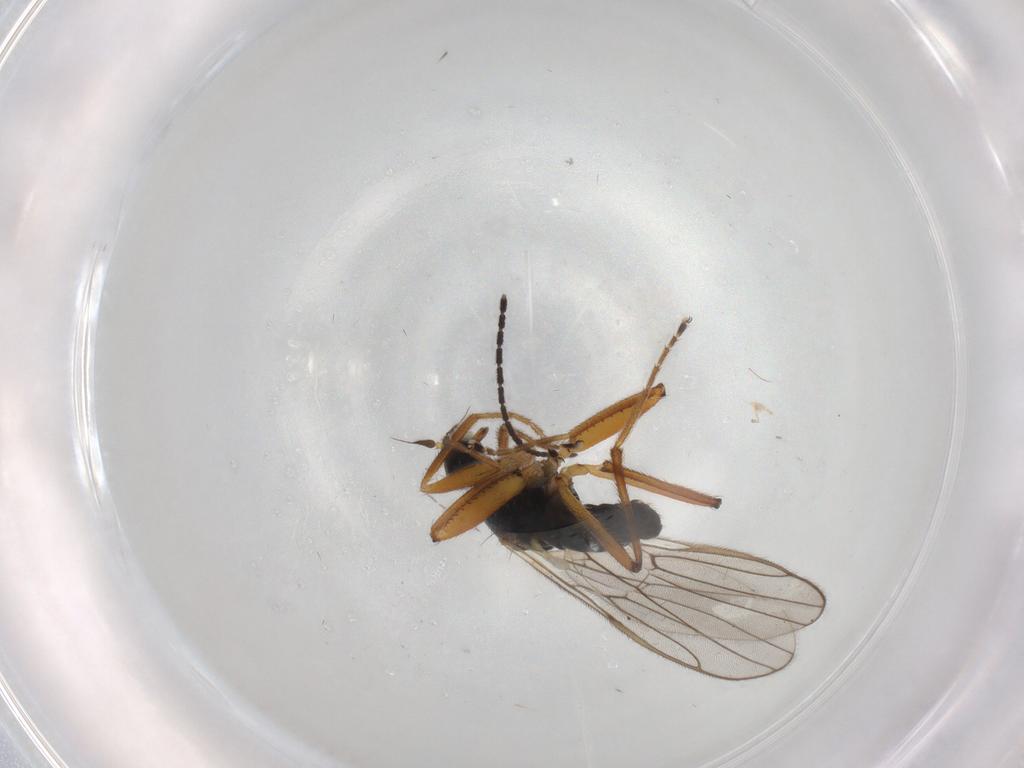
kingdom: Animalia
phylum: Arthropoda
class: Insecta
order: Diptera
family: Hybotidae
